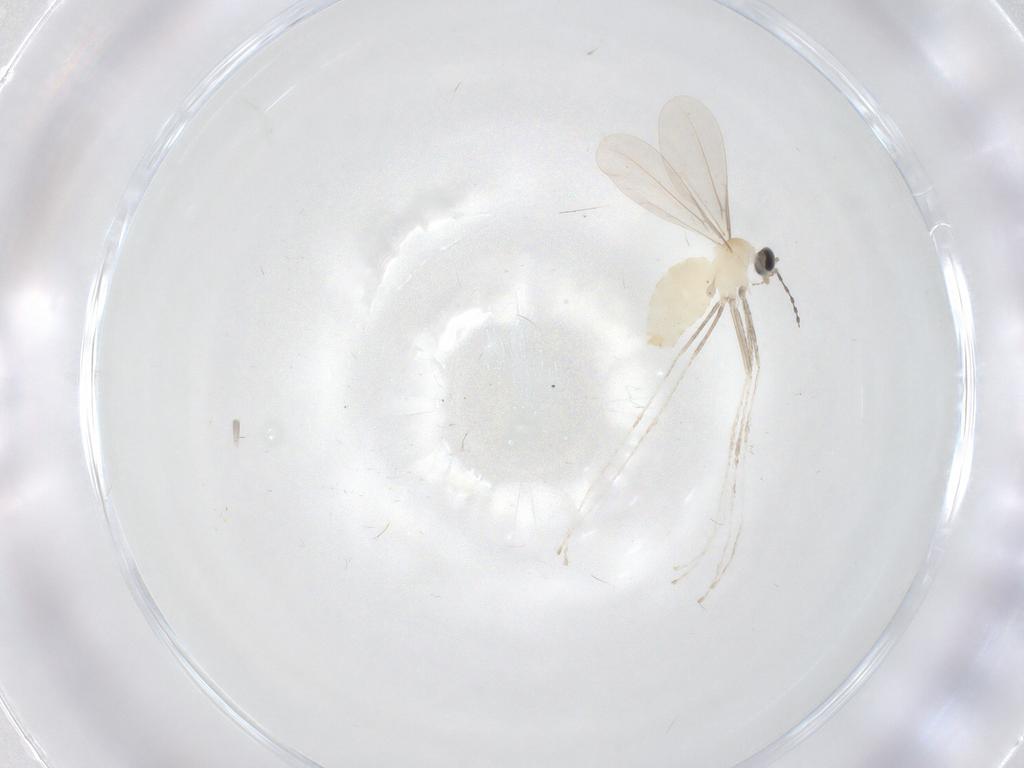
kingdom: Animalia
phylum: Arthropoda
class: Insecta
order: Diptera
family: Cecidomyiidae
